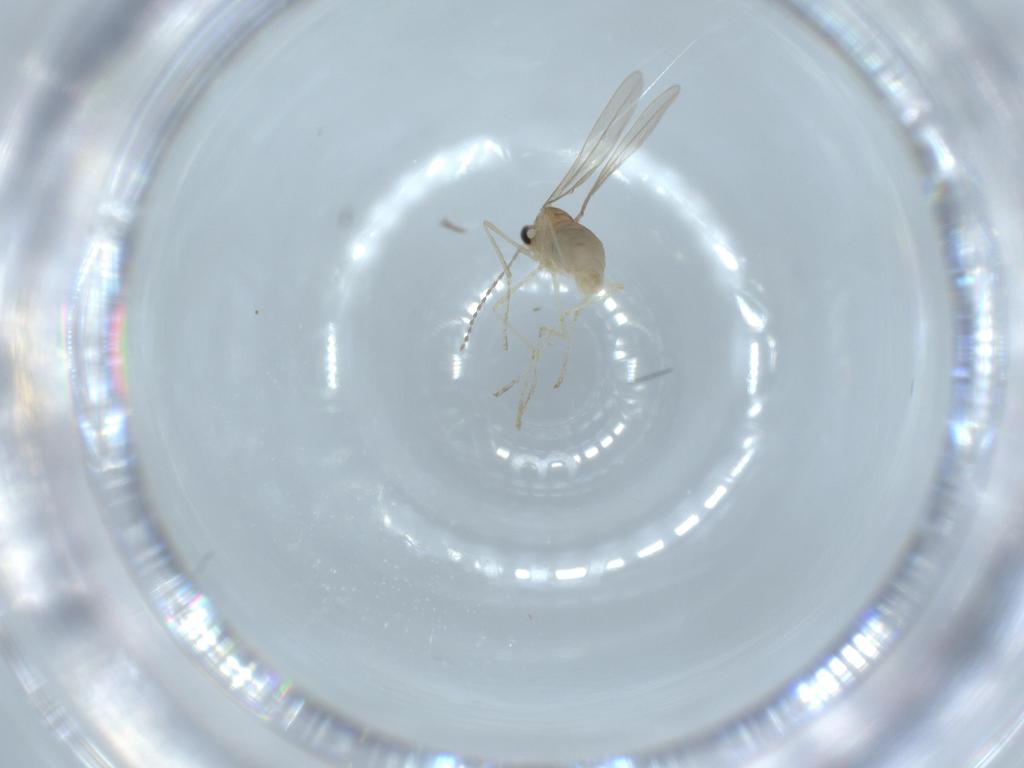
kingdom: Animalia
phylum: Arthropoda
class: Insecta
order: Diptera
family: Cecidomyiidae
